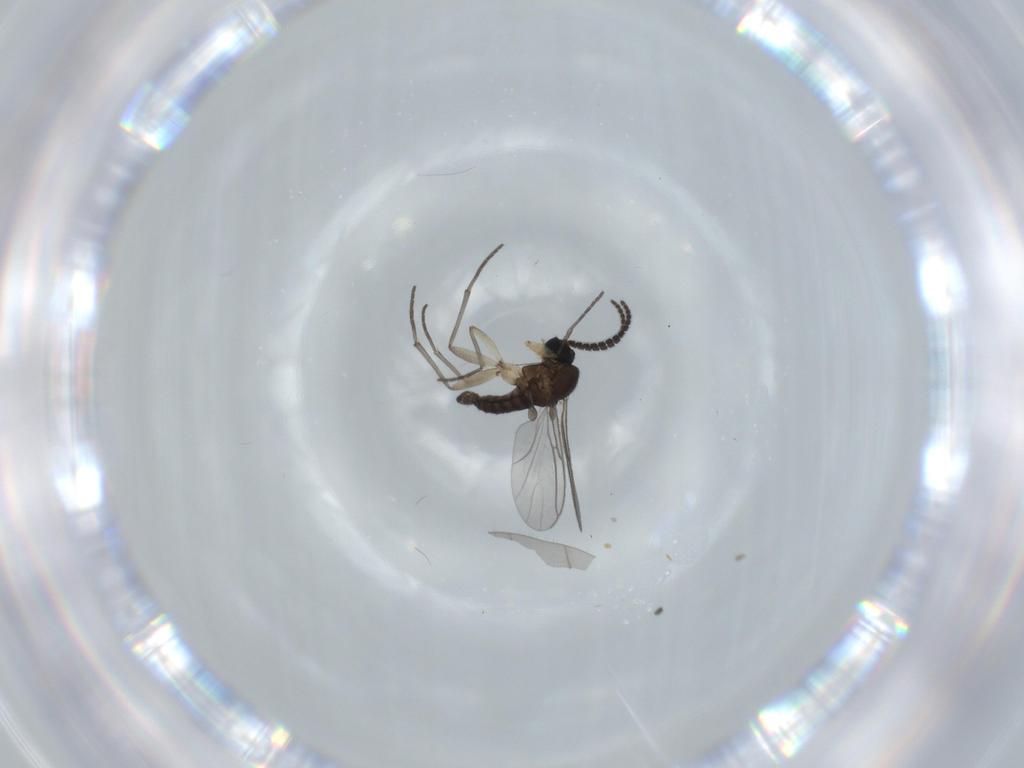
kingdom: Animalia
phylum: Arthropoda
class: Insecta
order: Diptera
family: Sciaridae
